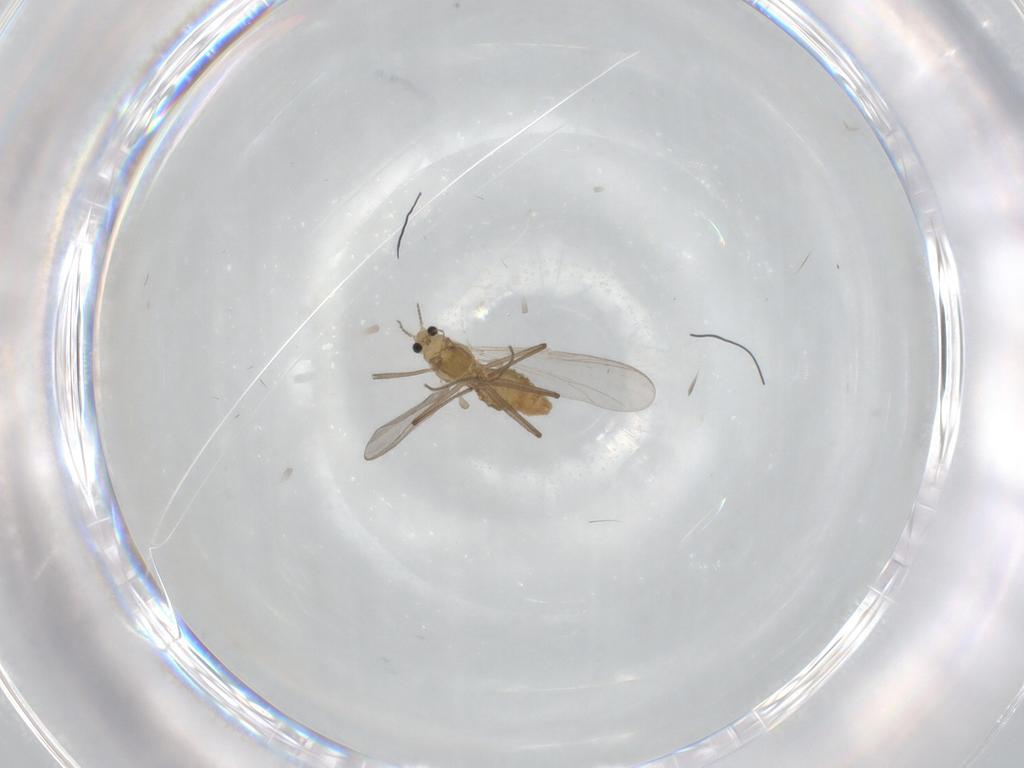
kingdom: Animalia
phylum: Arthropoda
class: Insecta
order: Diptera
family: Chironomidae
